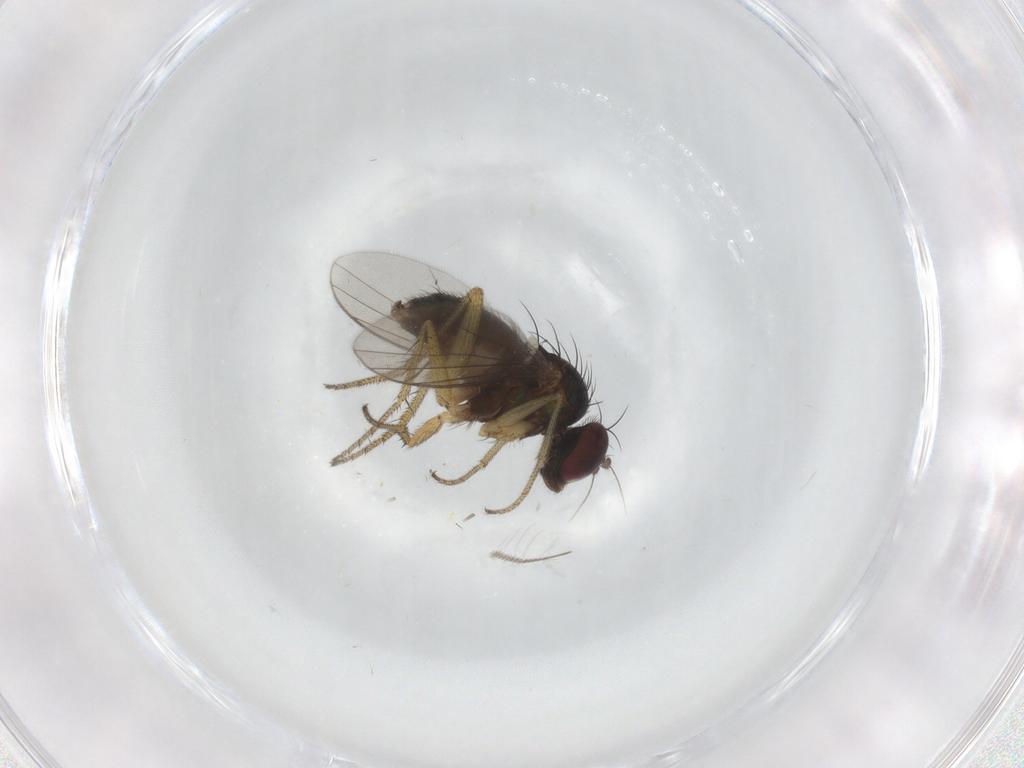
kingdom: Animalia
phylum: Arthropoda
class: Insecta
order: Diptera
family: Chironomidae
